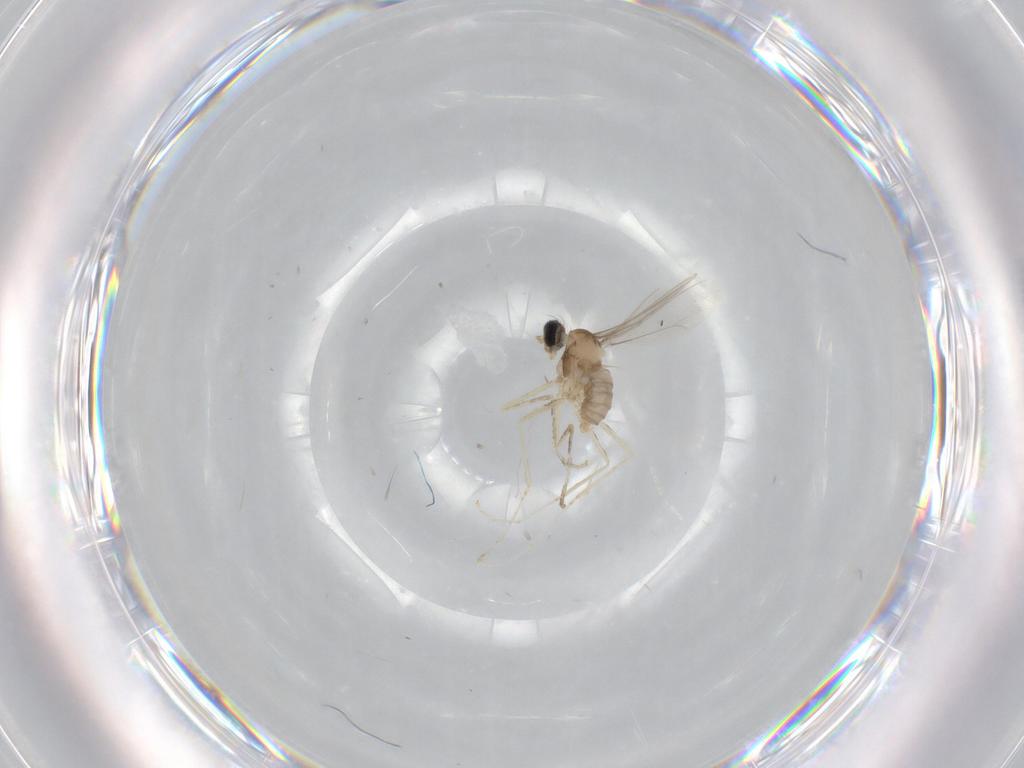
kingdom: Animalia
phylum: Arthropoda
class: Insecta
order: Diptera
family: Cecidomyiidae
